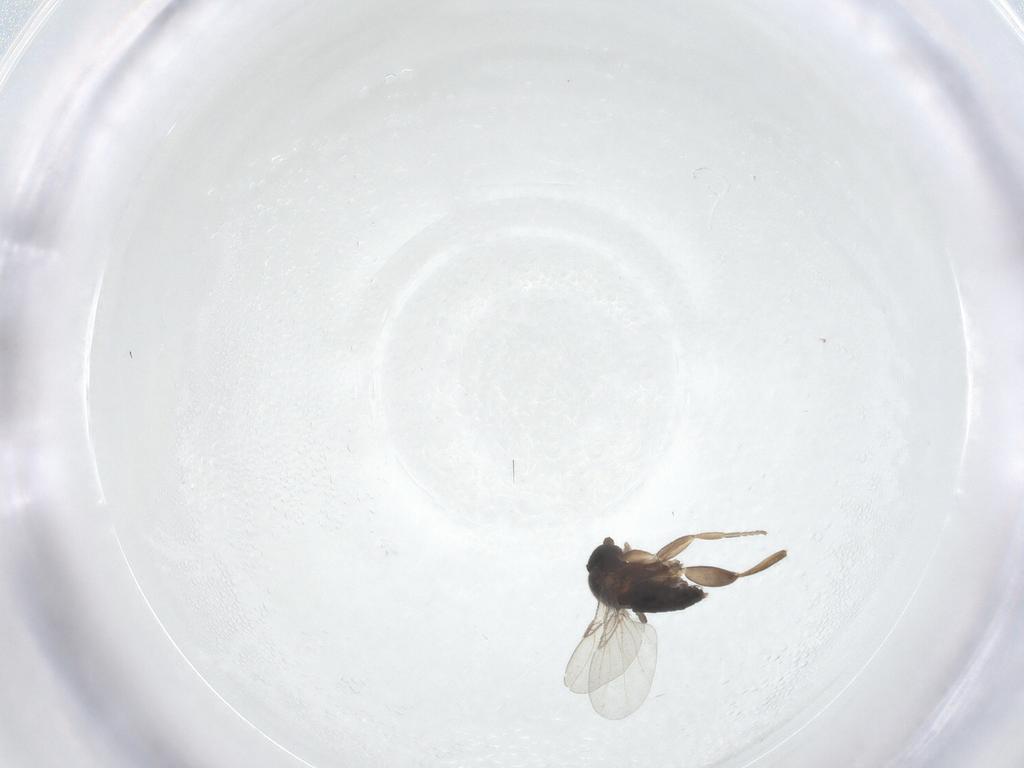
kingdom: Animalia
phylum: Arthropoda
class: Insecta
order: Diptera
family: Phoridae
